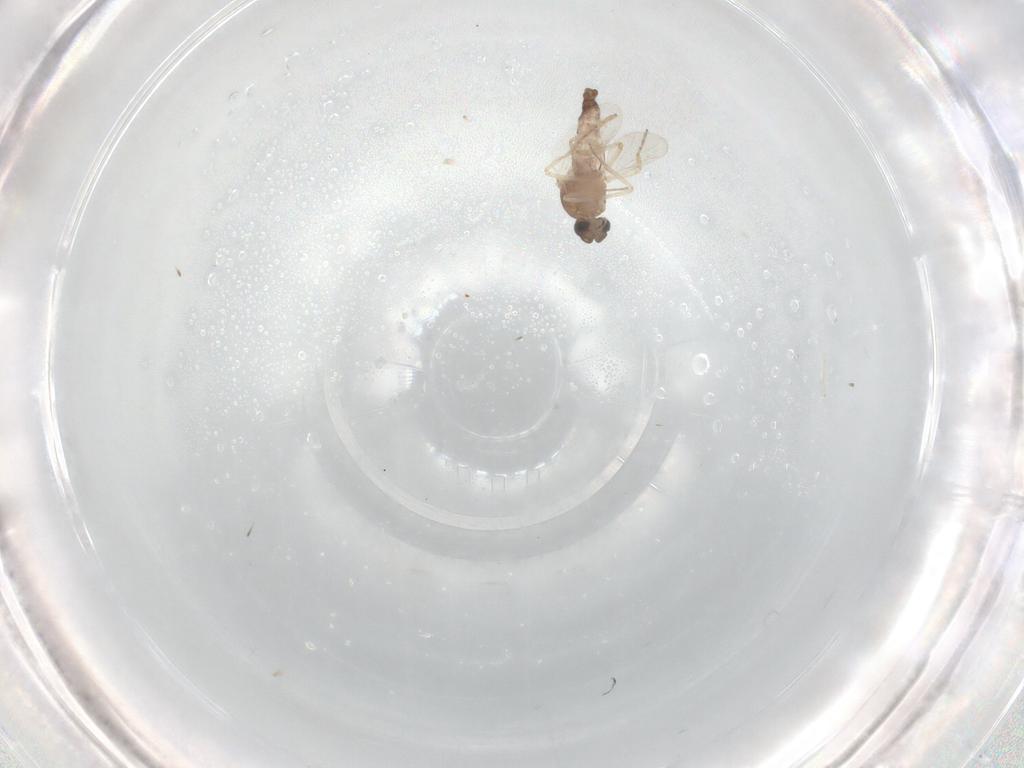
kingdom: Animalia
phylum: Arthropoda
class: Insecta
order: Diptera
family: Ceratopogonidae
